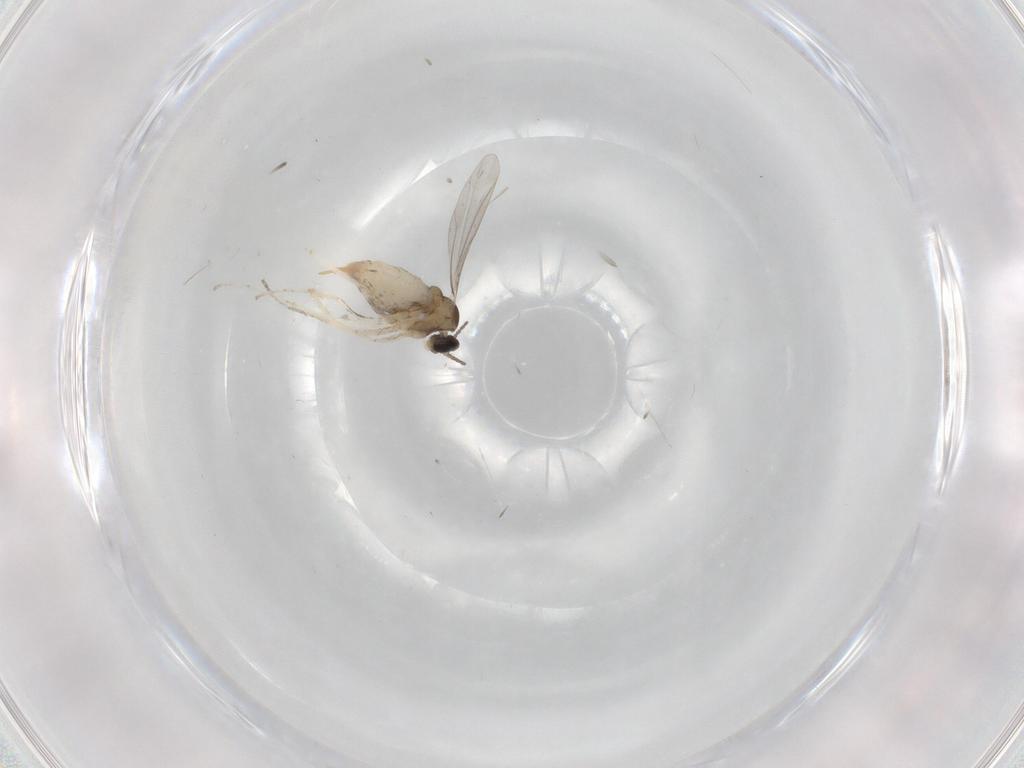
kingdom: Animalia
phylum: Arthropoda
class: Insecta
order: Diptera
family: Cecidomyiidae
